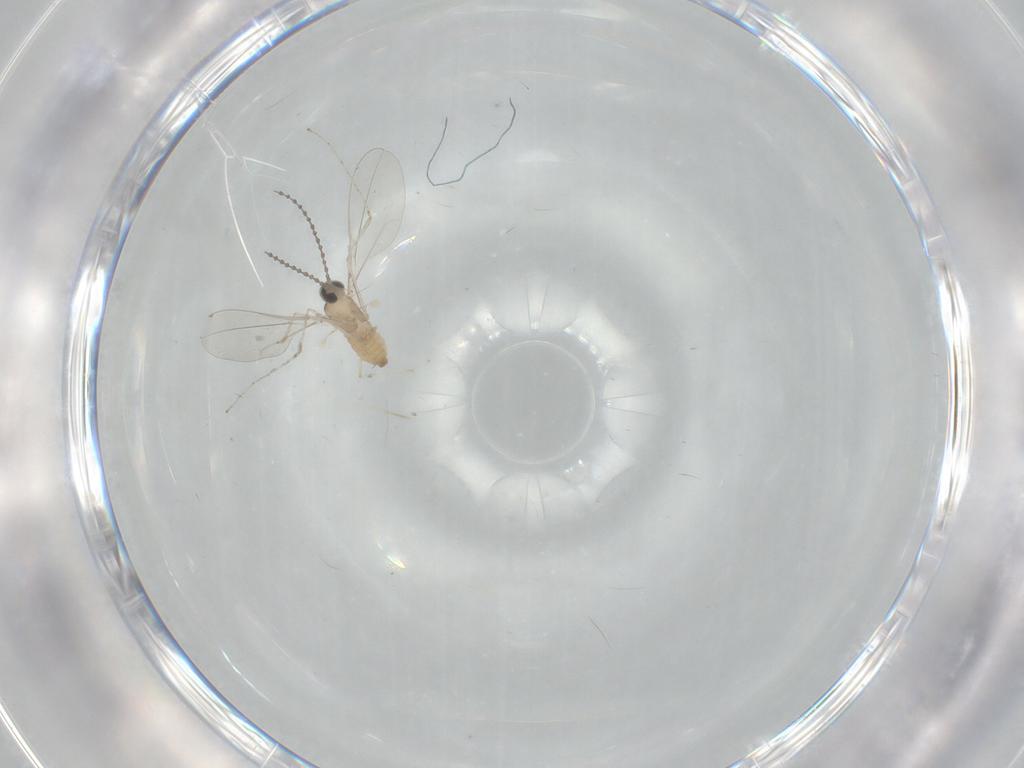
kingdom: Animalia
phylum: Arthropoda
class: Insecta
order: Diptera
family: Cecidomyiidae
